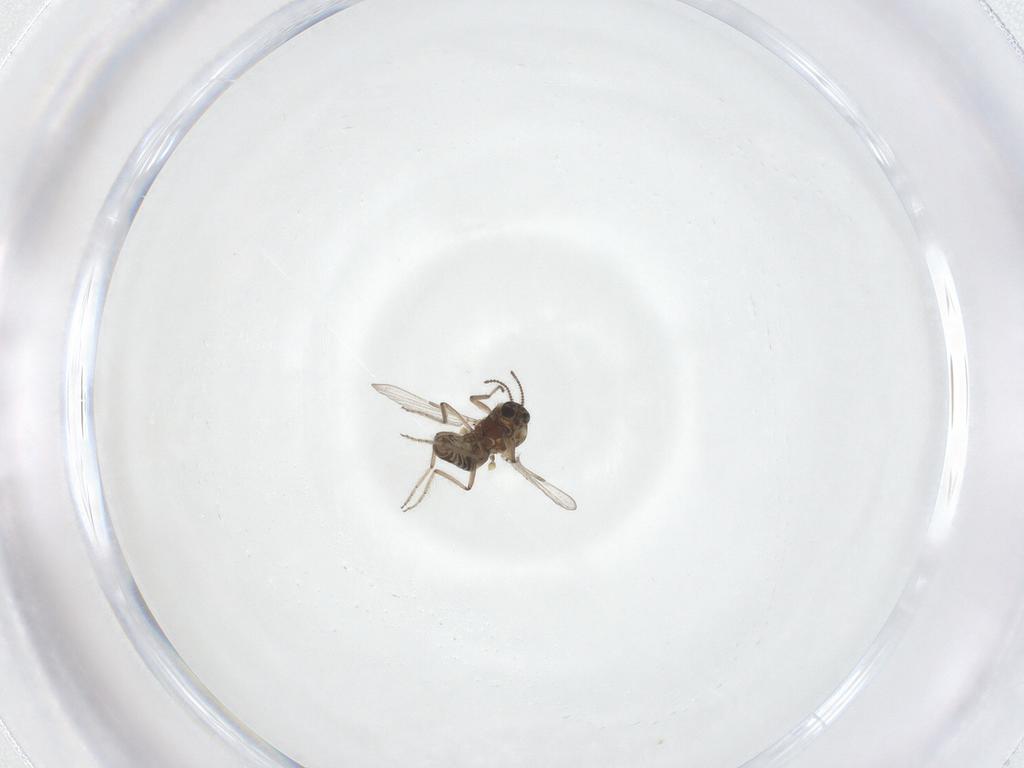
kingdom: Animalia
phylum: Arthropoda
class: Insecta
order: Diptera
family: Ceratopogonidae
